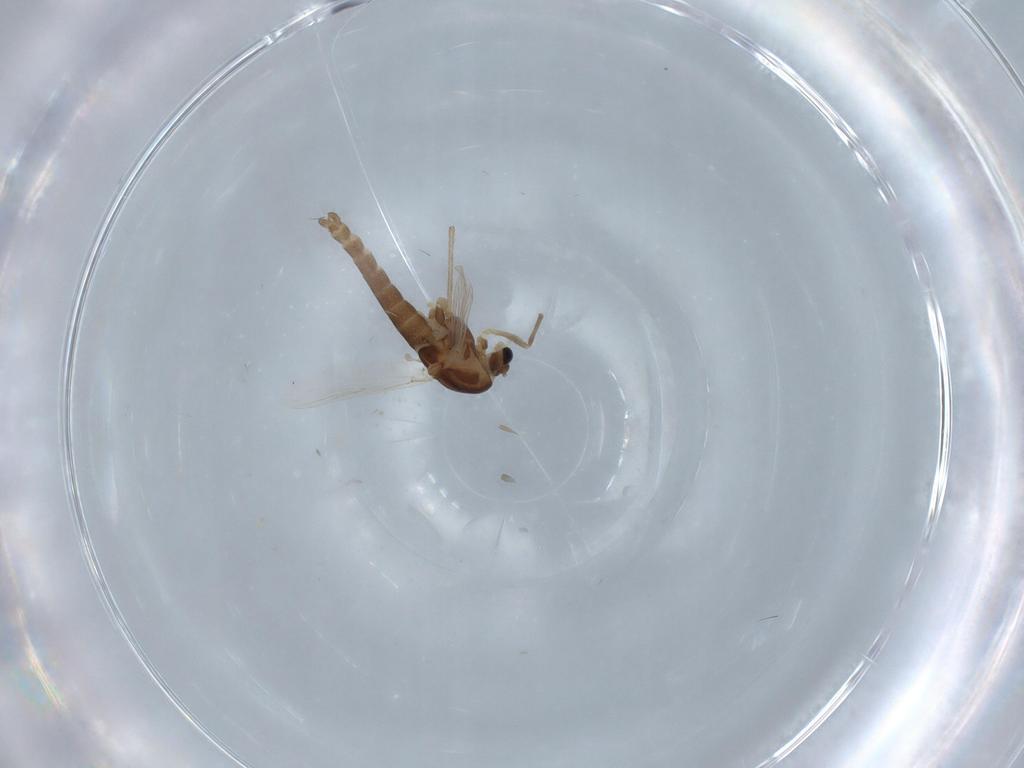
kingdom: Animalia
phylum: Arthropoda
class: Insecta
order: Diptera
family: Chironomidae
